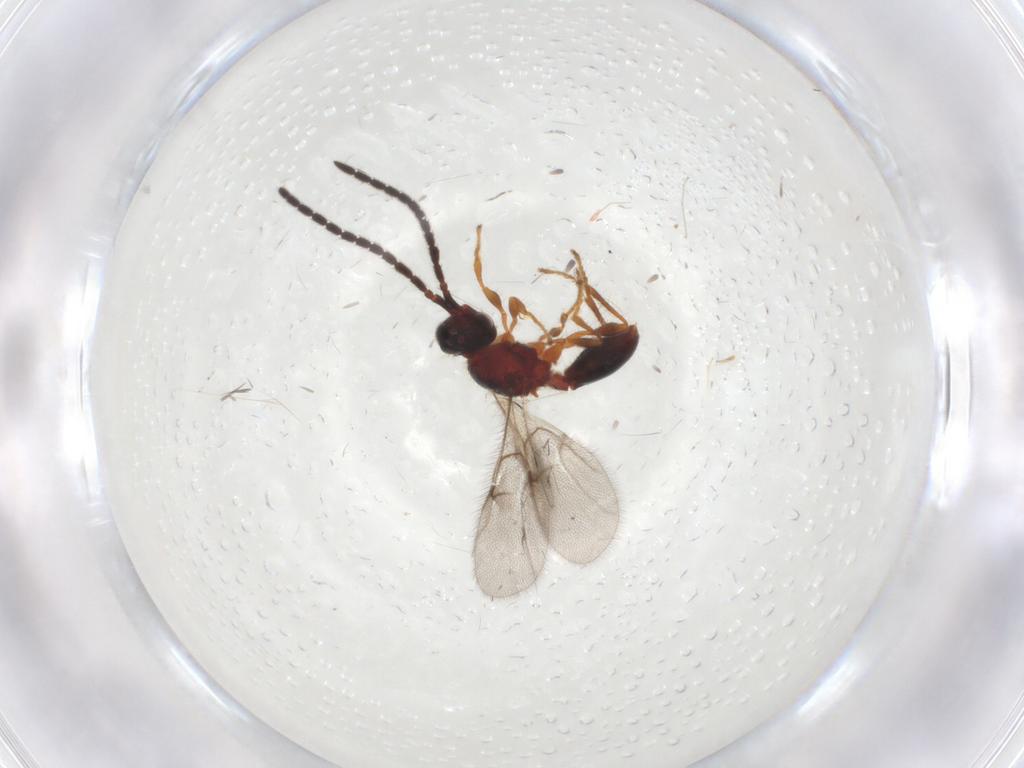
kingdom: Animalia
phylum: Arthropoda
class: Insecta
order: Hymenoptera
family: Diapriidae
